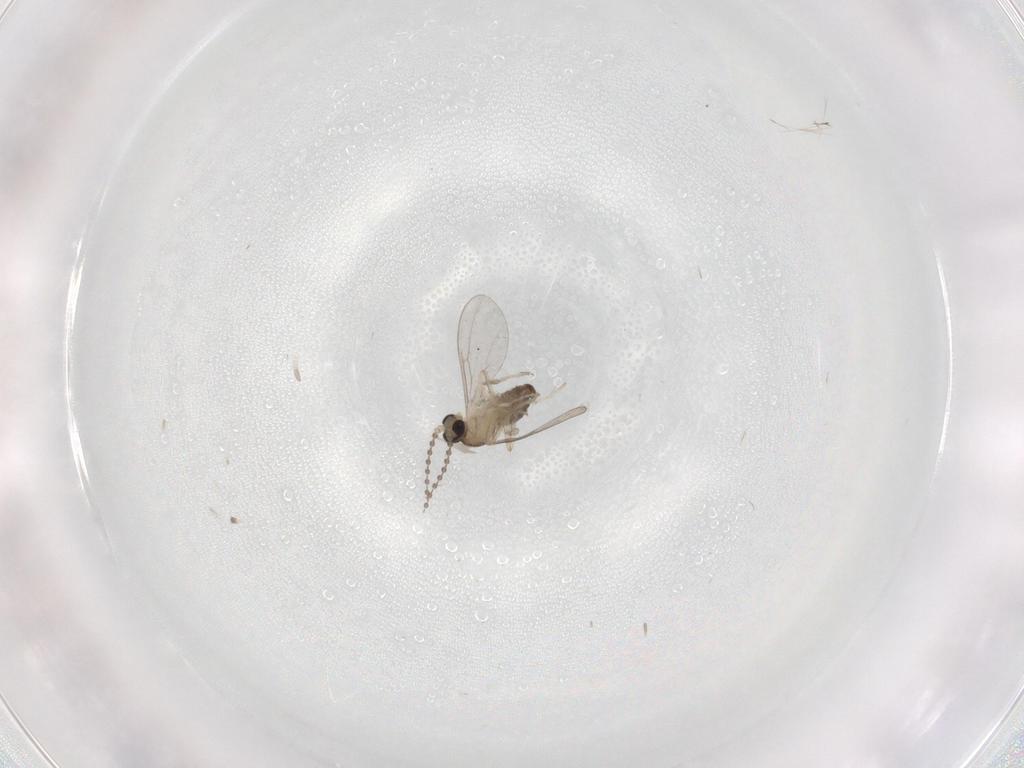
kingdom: Animalia
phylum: Arthropoda
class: Insecta
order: Diptera
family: Cecidomyiidae
